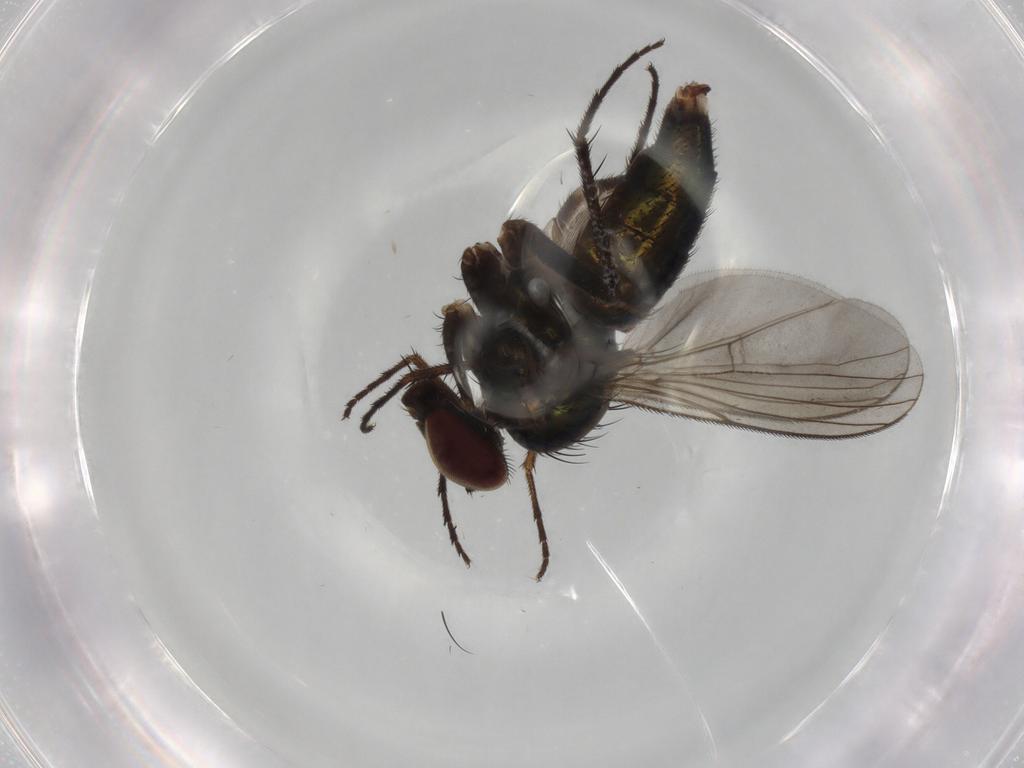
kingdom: Animalia
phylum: Arthropoda
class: Insecta
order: Diptera
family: Dolichopodidae
